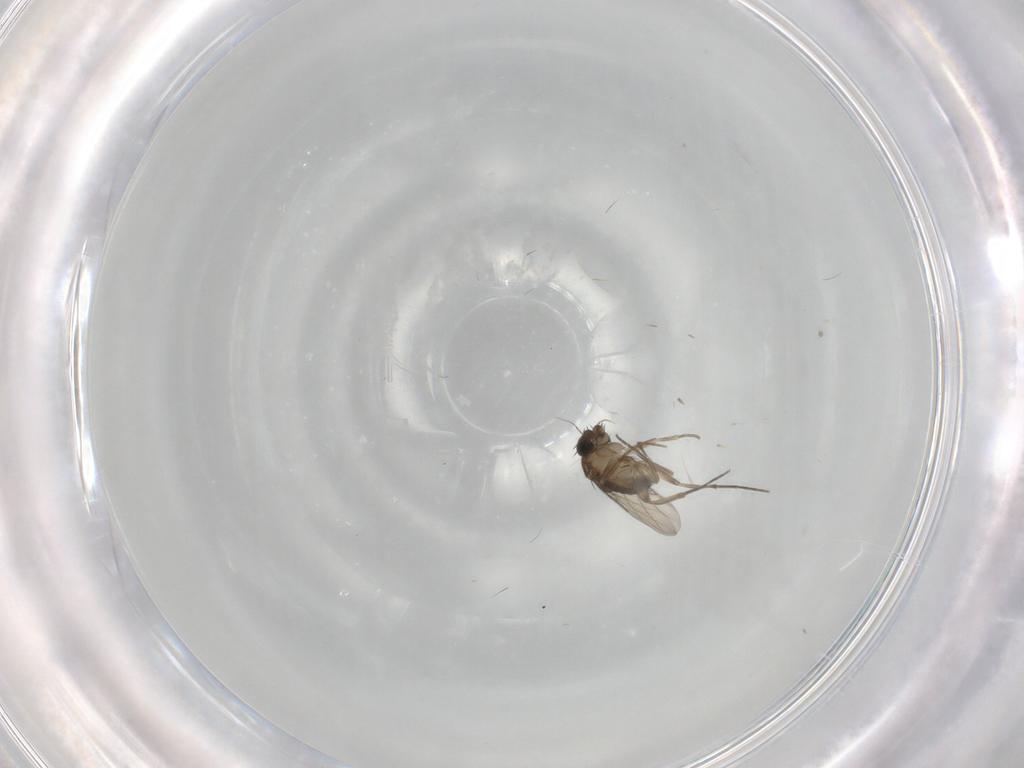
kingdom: Animalia
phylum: Arthropoda
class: Insecta
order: Diptera
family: Phoridae
